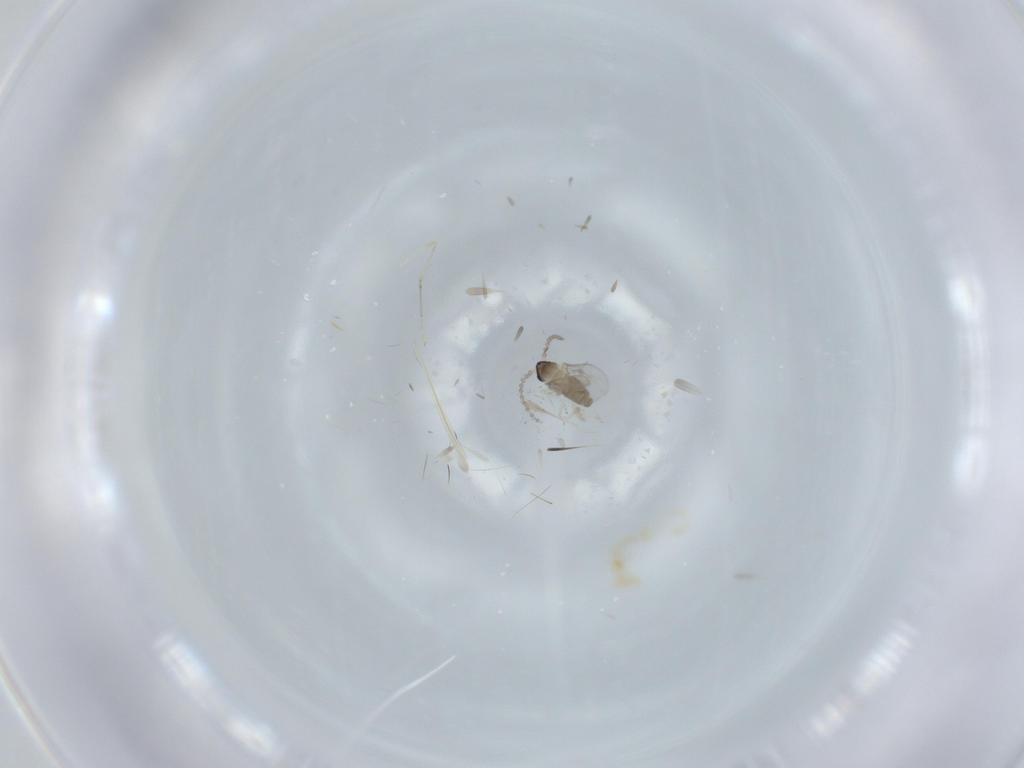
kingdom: Animalia
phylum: Arthropoda
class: Insecta
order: Diptera
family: Cecidomyiidae
